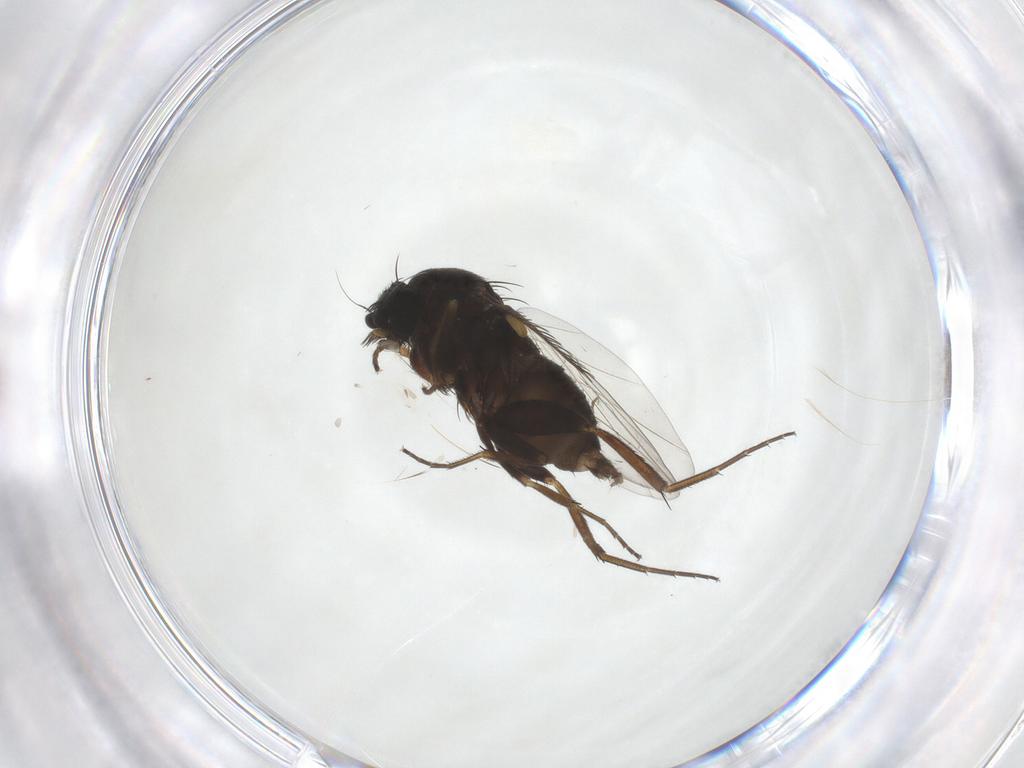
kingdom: Animalia
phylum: Arthropoda
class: Insecta
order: Diptera
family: Phoridae
